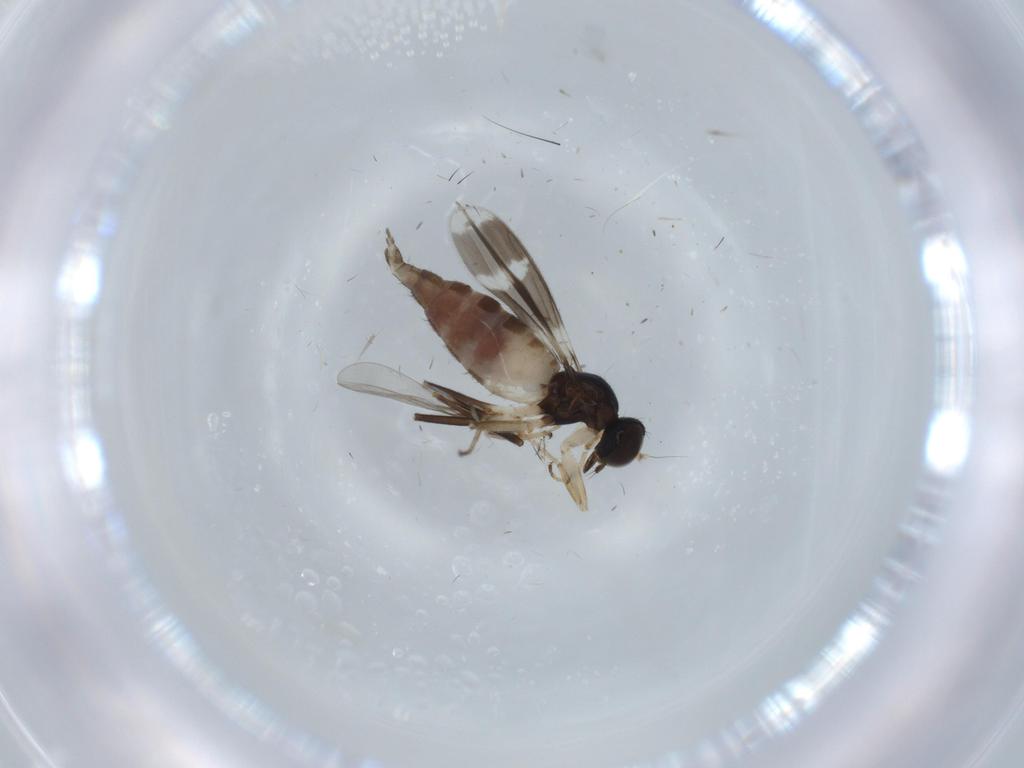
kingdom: Animalia
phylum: Arthropoda
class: Insecta
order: Diptera
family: Hybotidae
